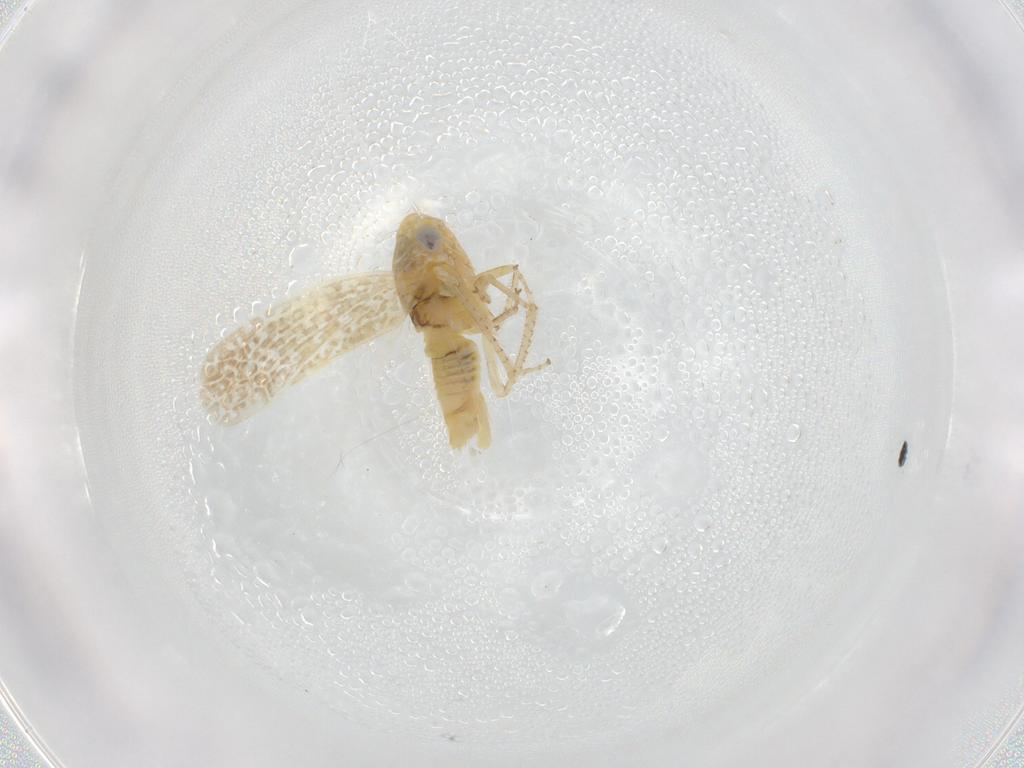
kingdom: Animalia
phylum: Arthropoda
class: Insecta
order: Hemiptera
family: Cicadellidae
